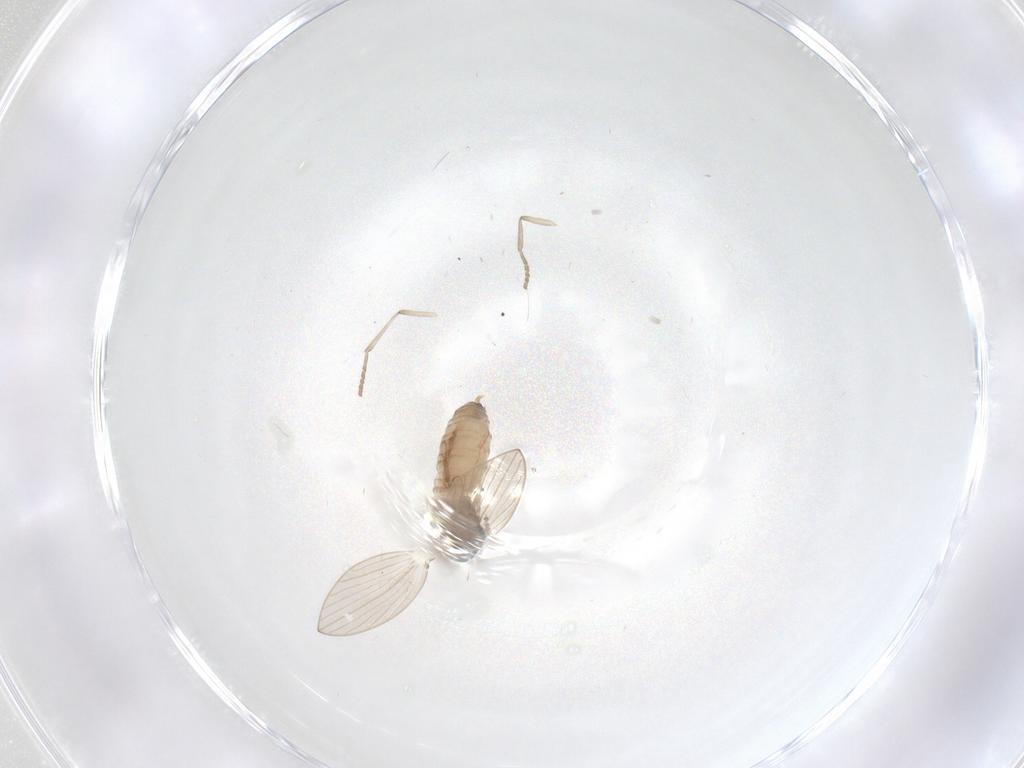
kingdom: Animalia
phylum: Arthropoda
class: Insecta
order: Diptera
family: Psychodidae
